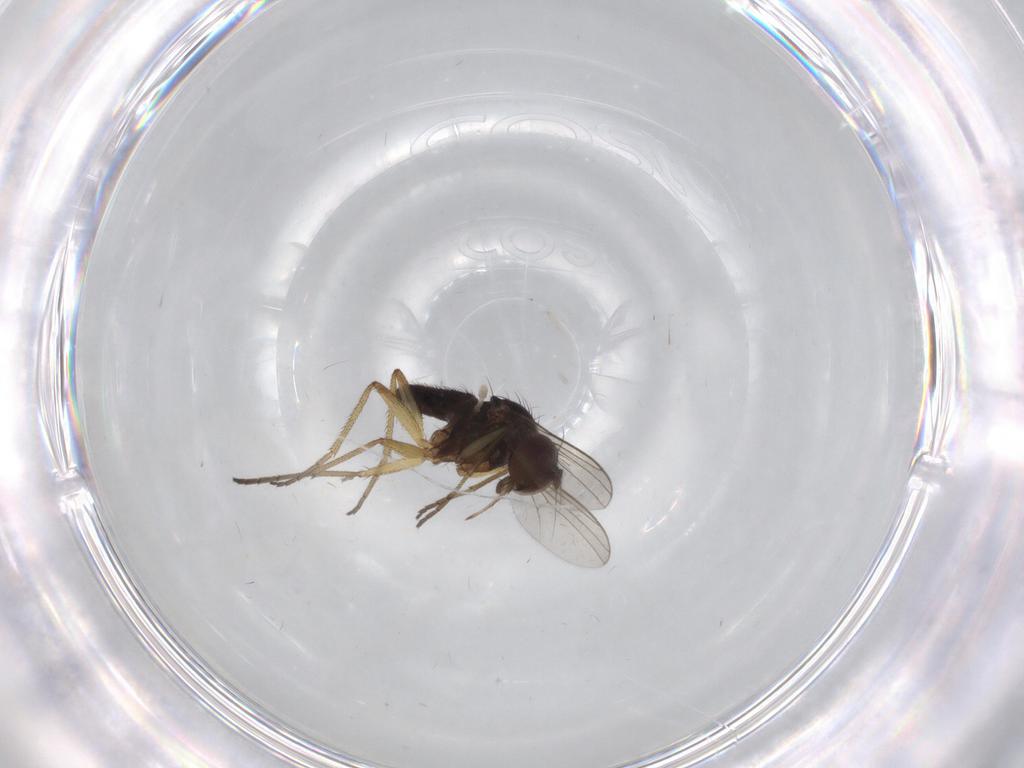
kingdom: Animalia
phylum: Arthropoda
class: Insecta
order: Diptera
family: Dolichopodidae
